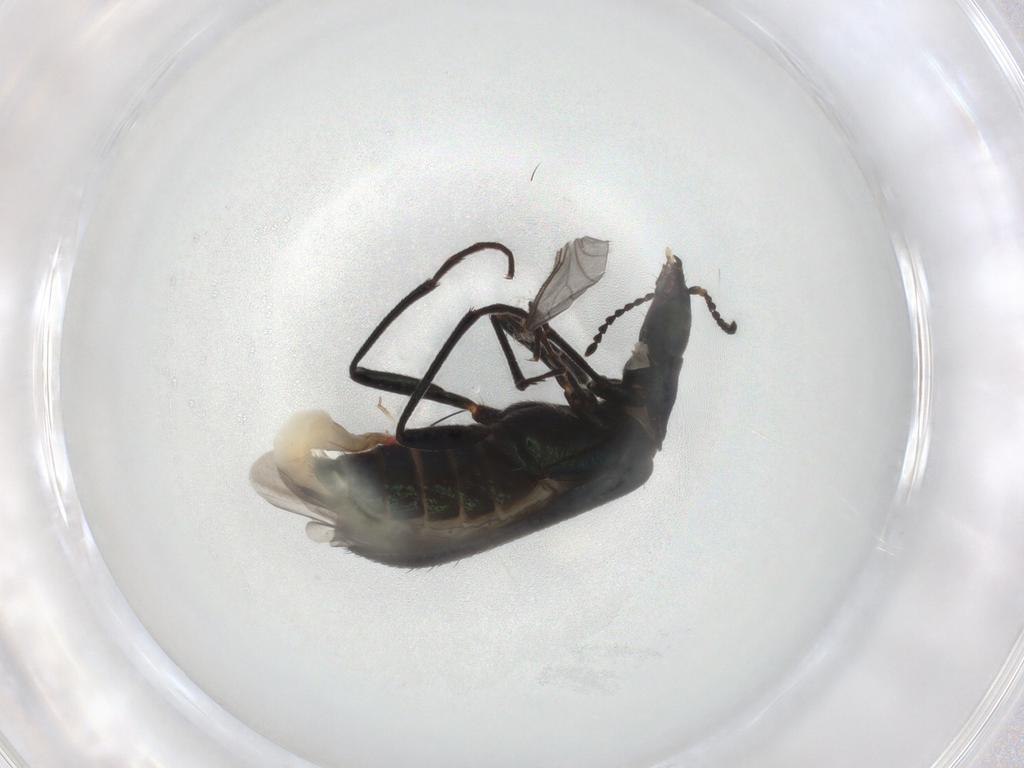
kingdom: Animalia
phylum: Arthropoda
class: Insecta
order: Coleoptera
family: Melyridae
